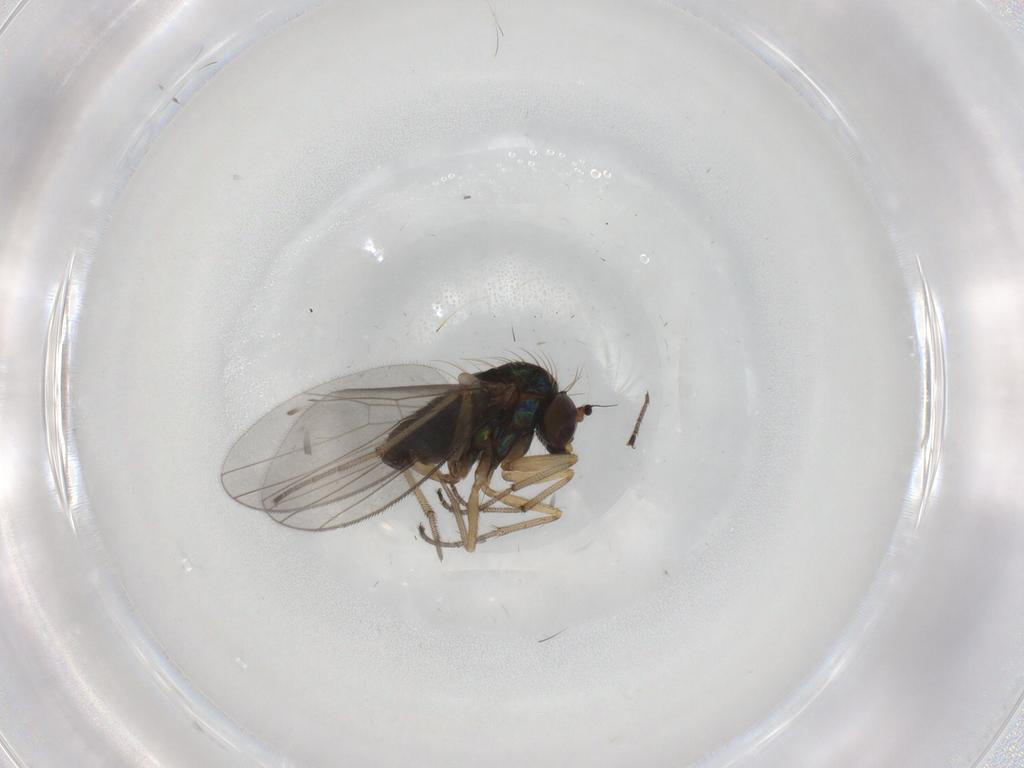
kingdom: Animalia
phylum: Arthropoda
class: Insecta
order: Diptera
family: Dolichopodidae
